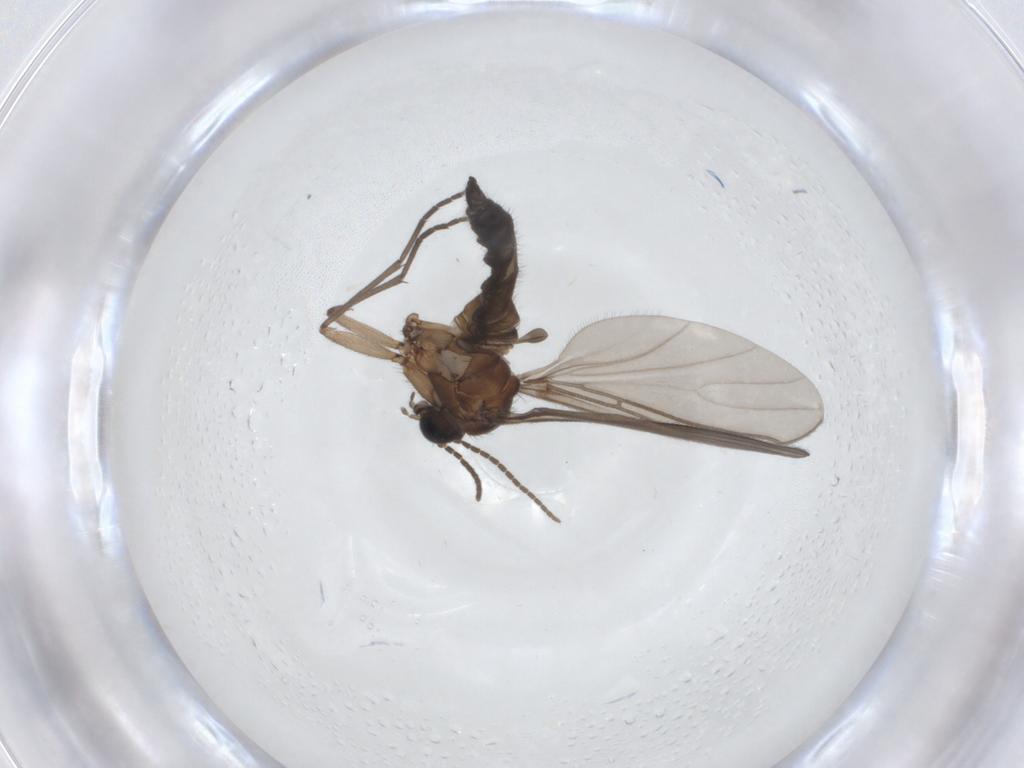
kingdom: Animalia
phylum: Arthropoda
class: Insecta
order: Diptera
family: Sciaridae
